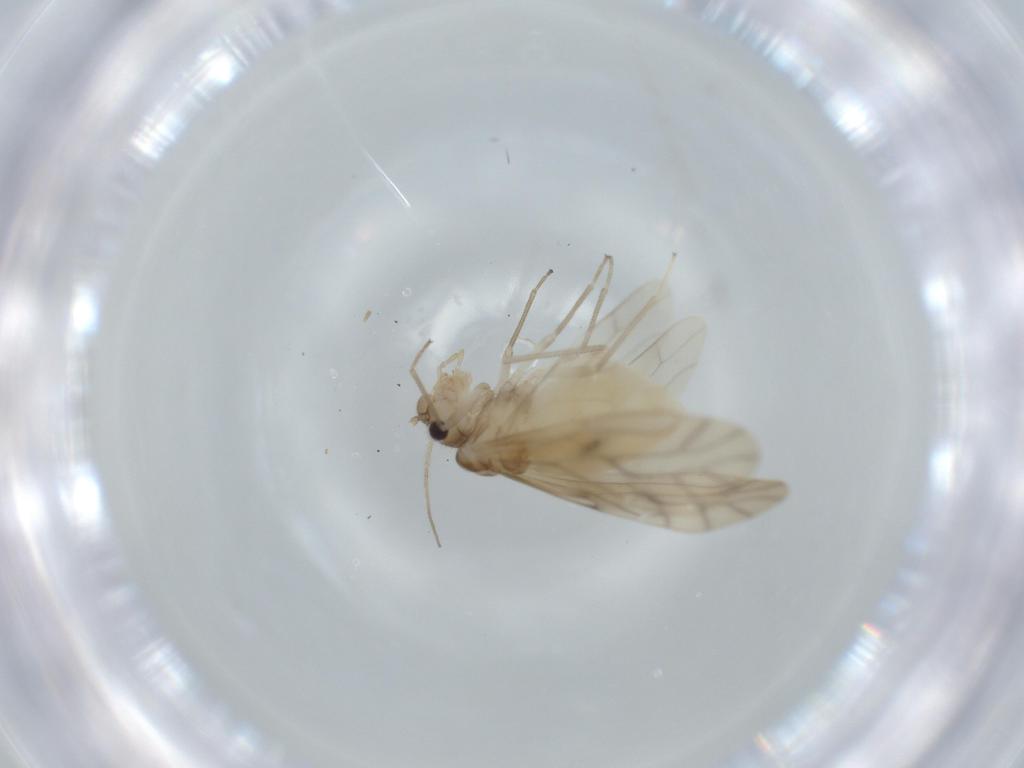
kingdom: Animalia
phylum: Arthropoda
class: Insecta
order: Psocodea
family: Caeciliusidae
